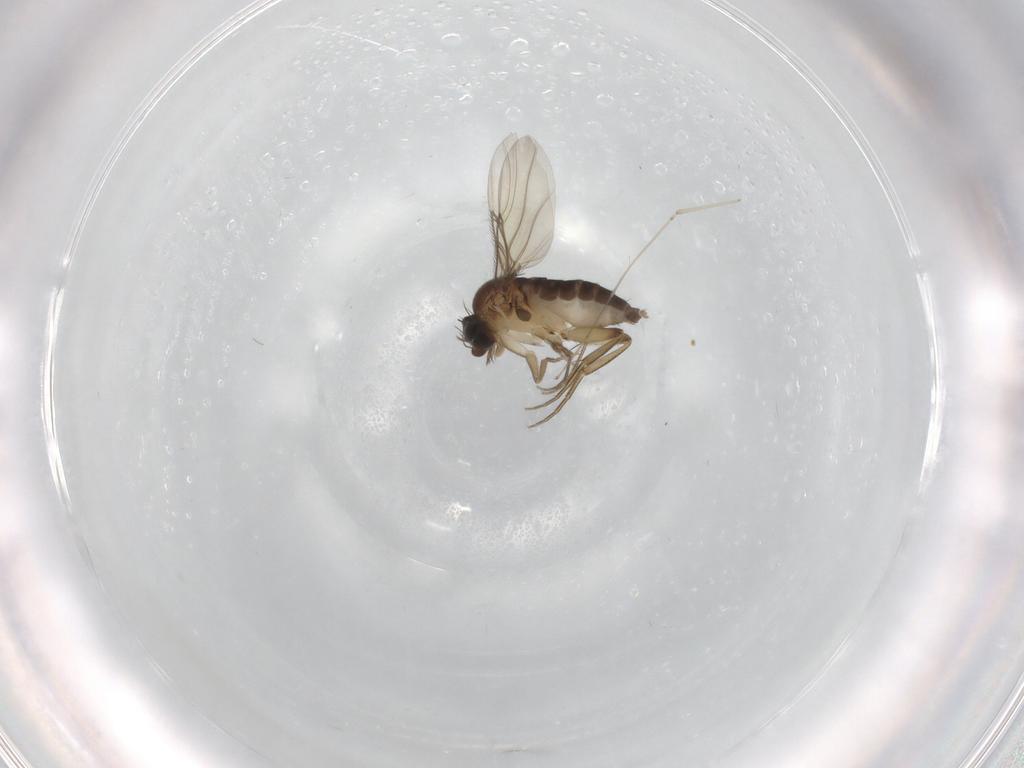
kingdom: Animalia
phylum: Arthropoda
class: Insecta
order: Diptera
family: Phoridae
